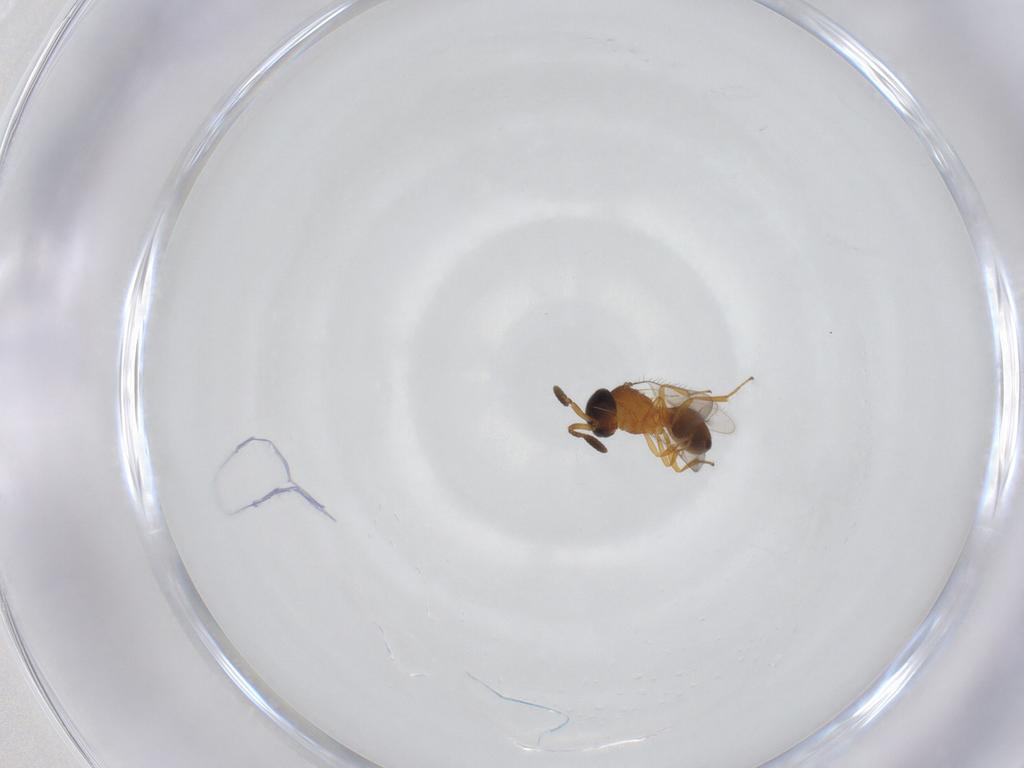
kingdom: Animalia
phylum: Arthropoda
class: Insecta
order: Hymenoptera
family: Scelionidae
